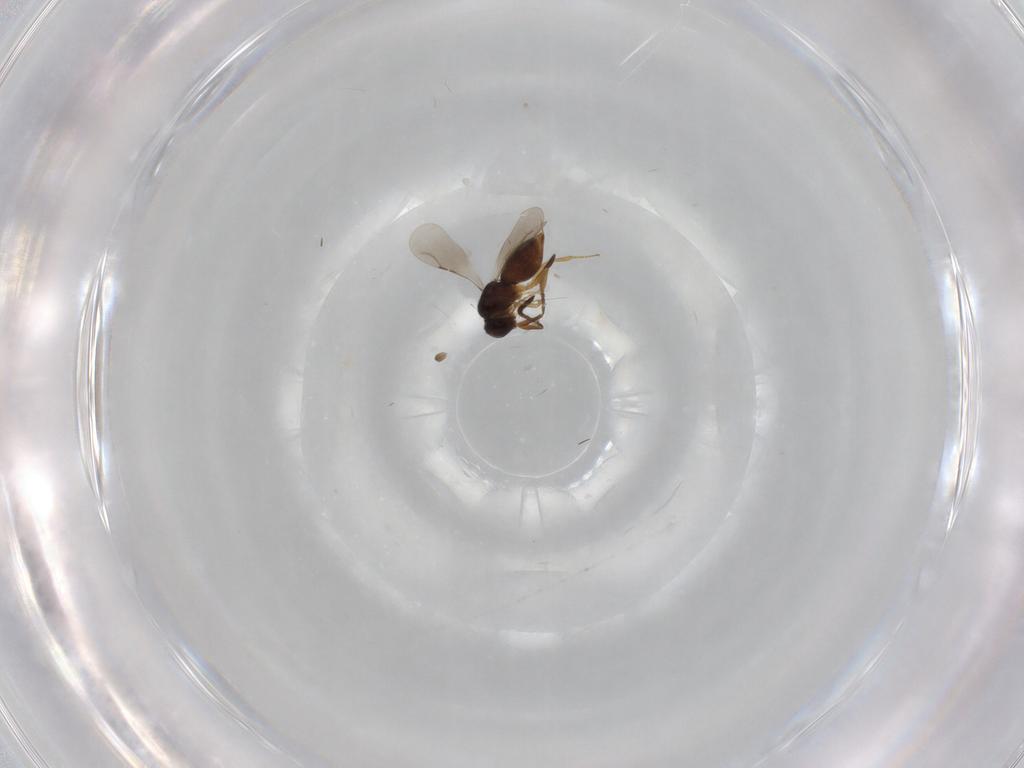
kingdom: Animalia
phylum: Arthropoda
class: Insecta
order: Hymenoptera
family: Ceraphronidae
